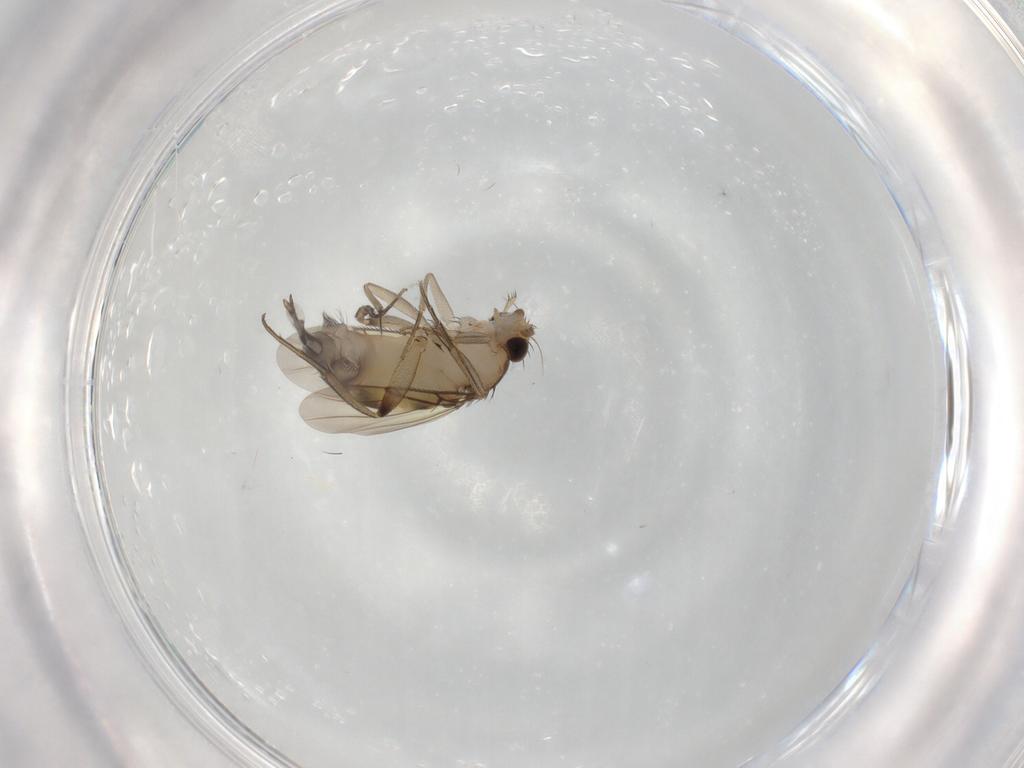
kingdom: Animalia
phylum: Arthropoda
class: Insecta
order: Diptera
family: Phoridae
